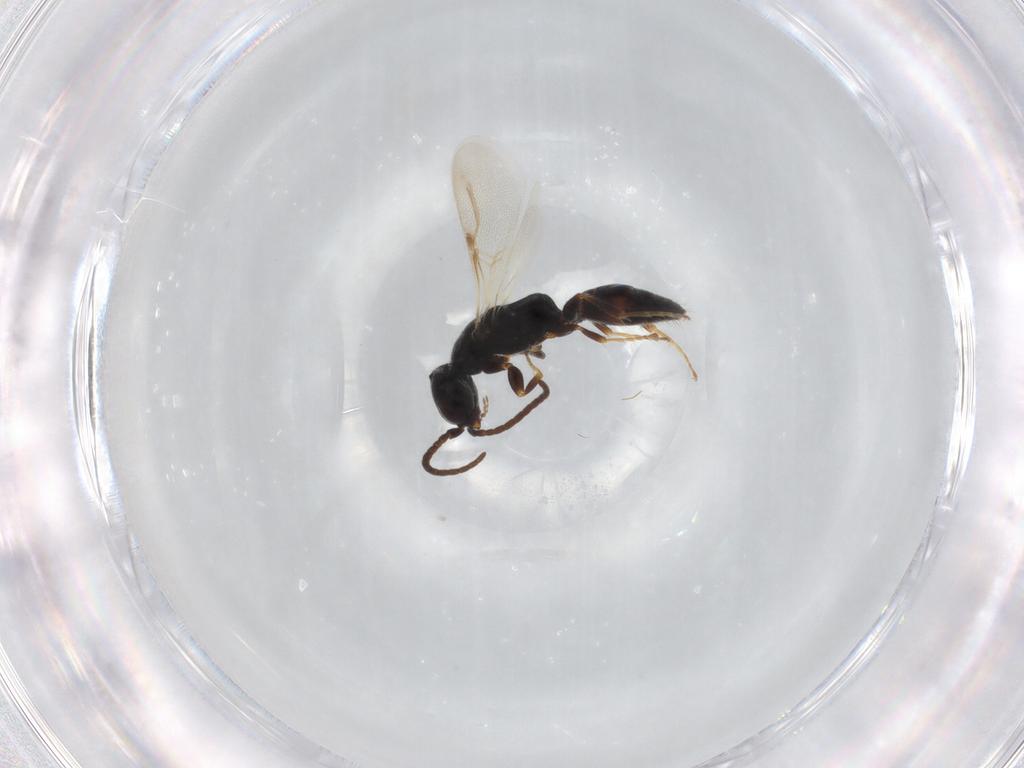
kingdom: Animalia
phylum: Arthropoda
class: Insecta
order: Hymenoptera
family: Bethylidae
